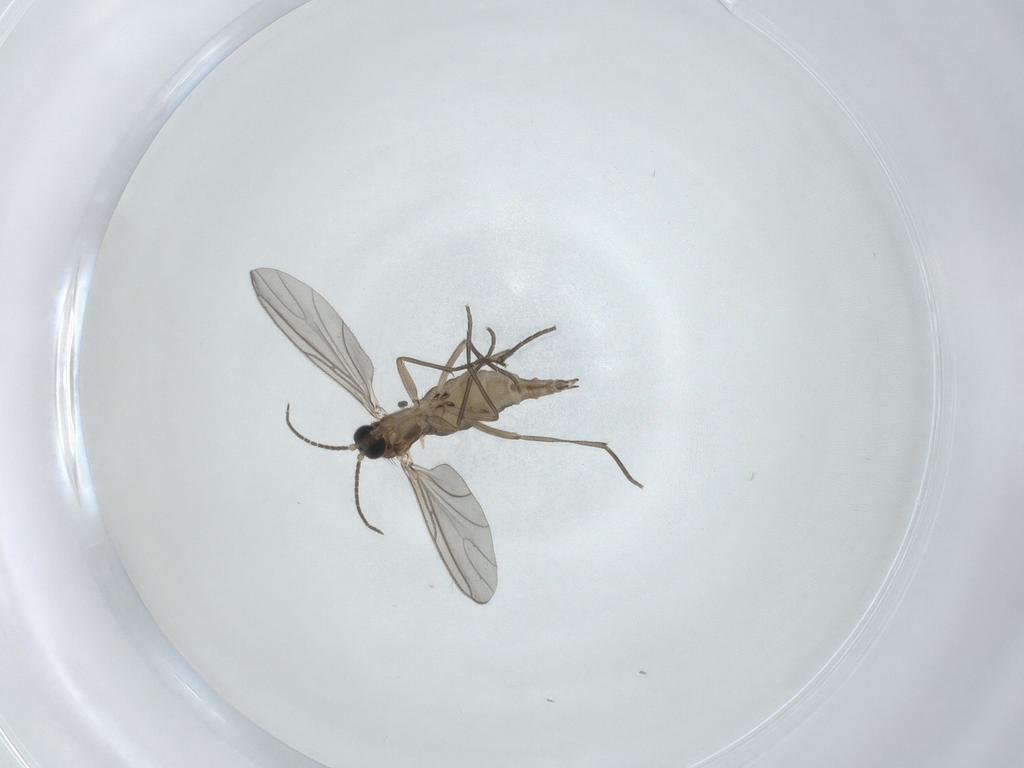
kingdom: Animalia
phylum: Arthropoda
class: Insecta
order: Diptera
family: Sciaridae
